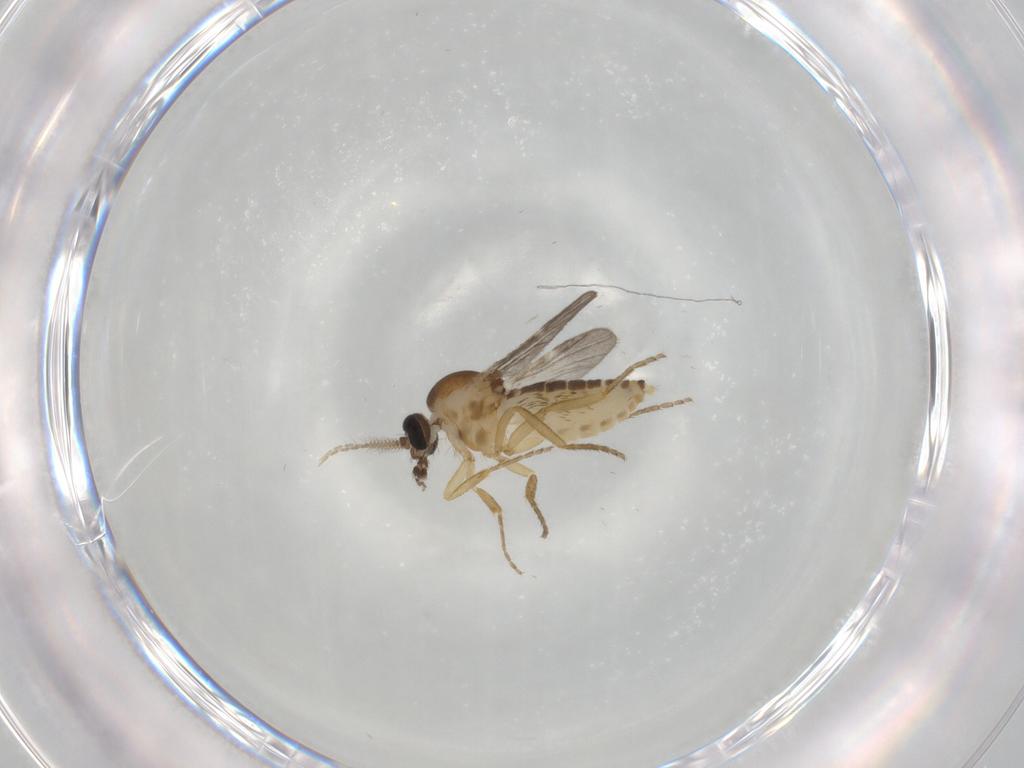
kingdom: Animalia
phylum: Arthropoda
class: Insecta
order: Diptera
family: Ceratopogonidae
